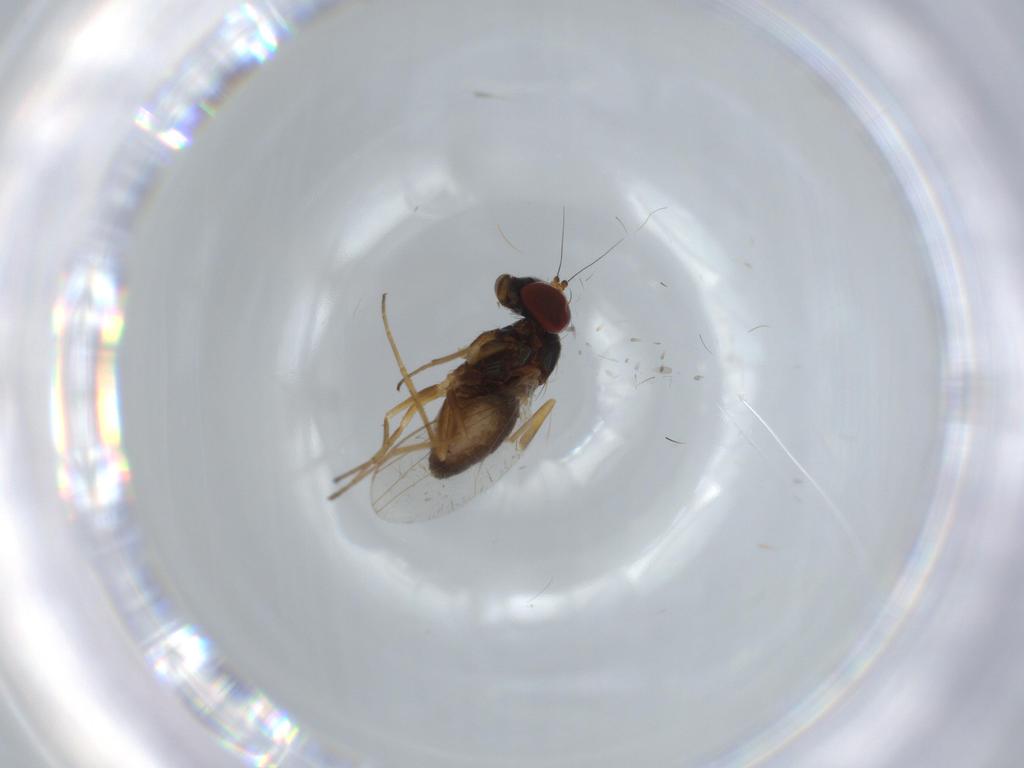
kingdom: Animalia
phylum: Arthropoda
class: Insecta
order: Diptera
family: Dolichopodidae
